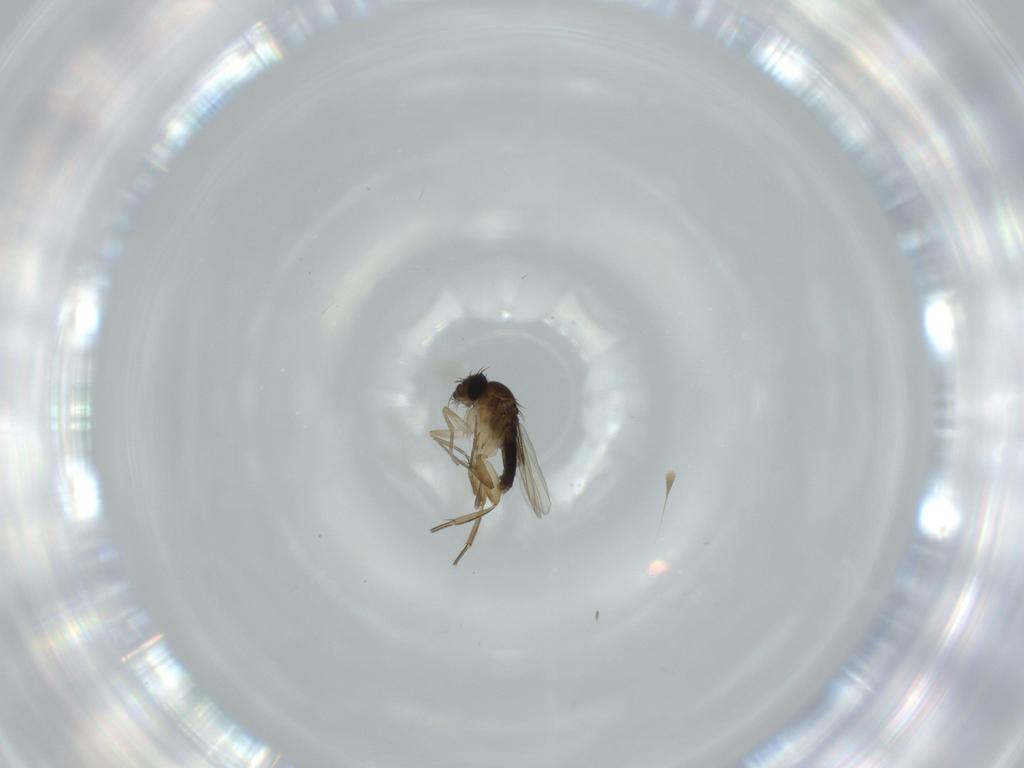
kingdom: Animalia
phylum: Arthropoda
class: Insecta
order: Diptera
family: Phoridae
